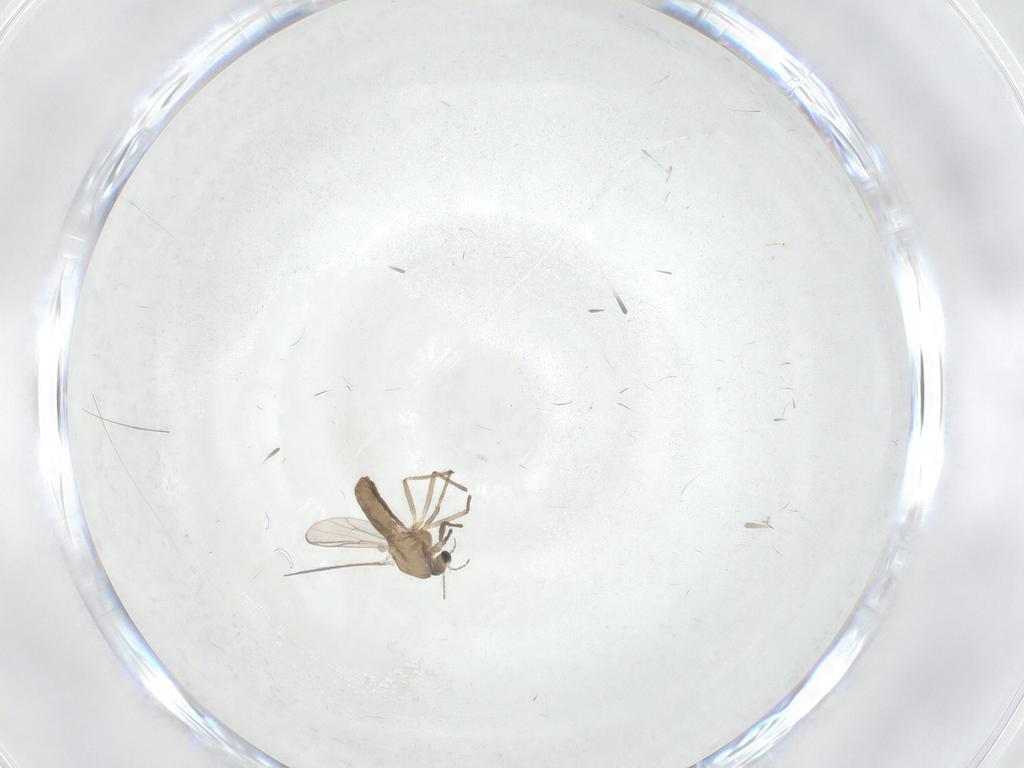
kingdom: Animalia
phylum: Arthropoda
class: Insecta
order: Diptera
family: Chironomidae
